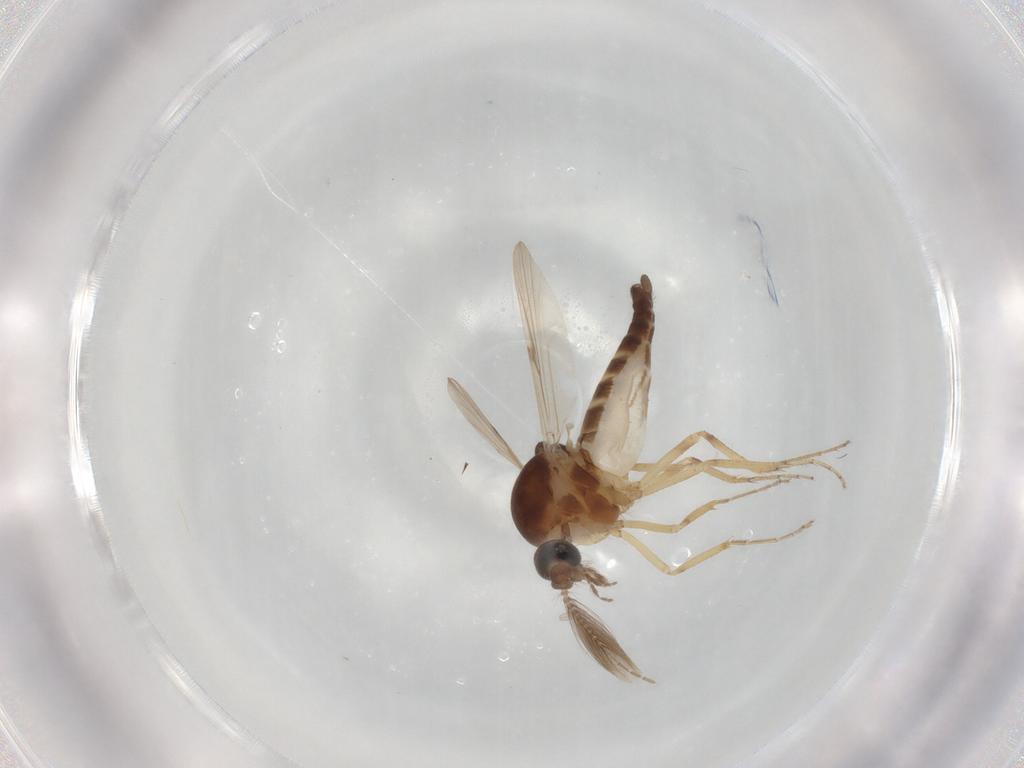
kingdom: Animalia
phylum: Arthropoda
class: Insecta
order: Diptera
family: Ceratopogonidae
